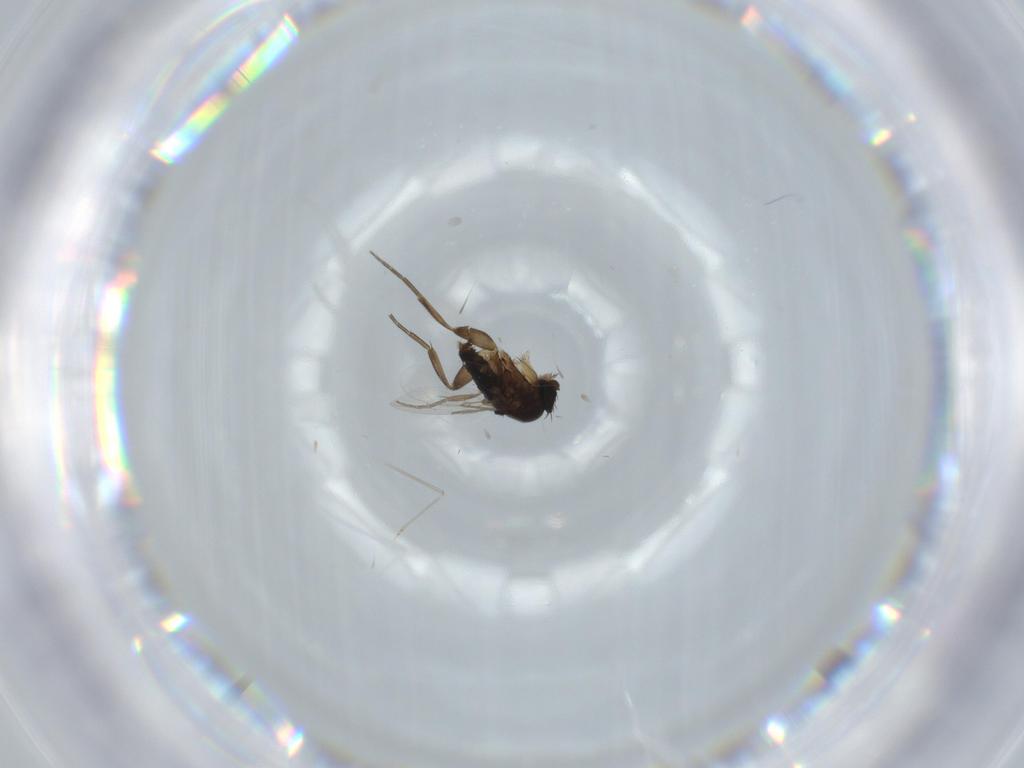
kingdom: Animalia
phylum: Arthropoda
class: Insecta
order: Diptera
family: Phoridae
